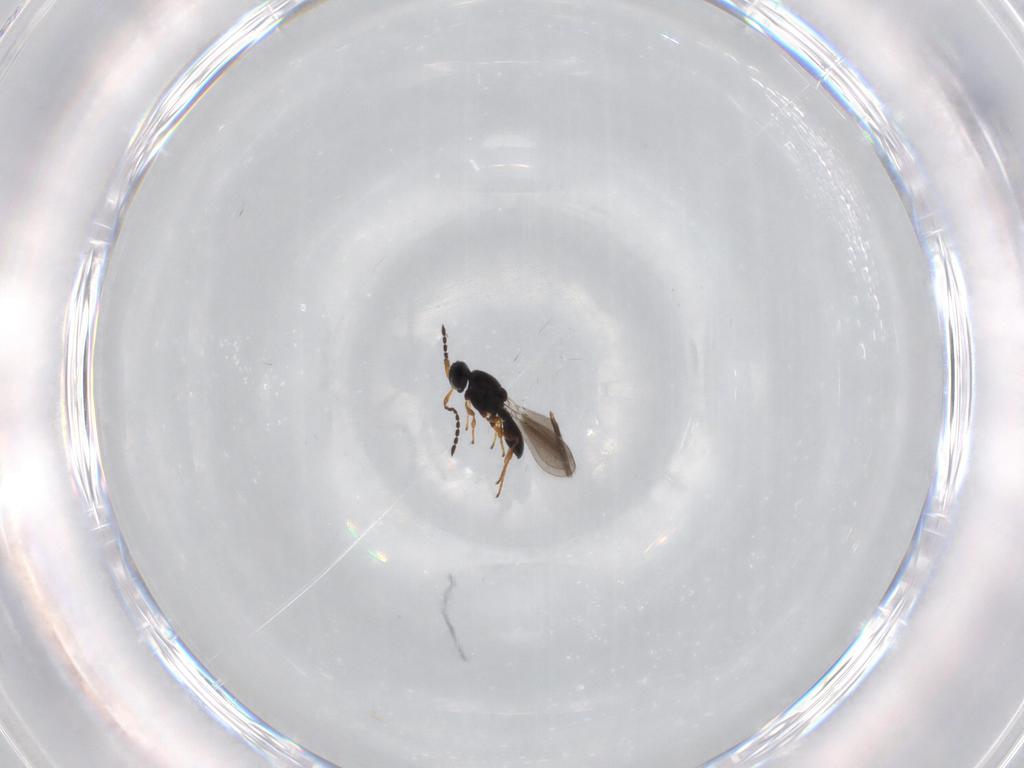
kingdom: Animalia
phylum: Arthropoda
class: Insecta
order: Hymenoptera
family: Platygastridae
